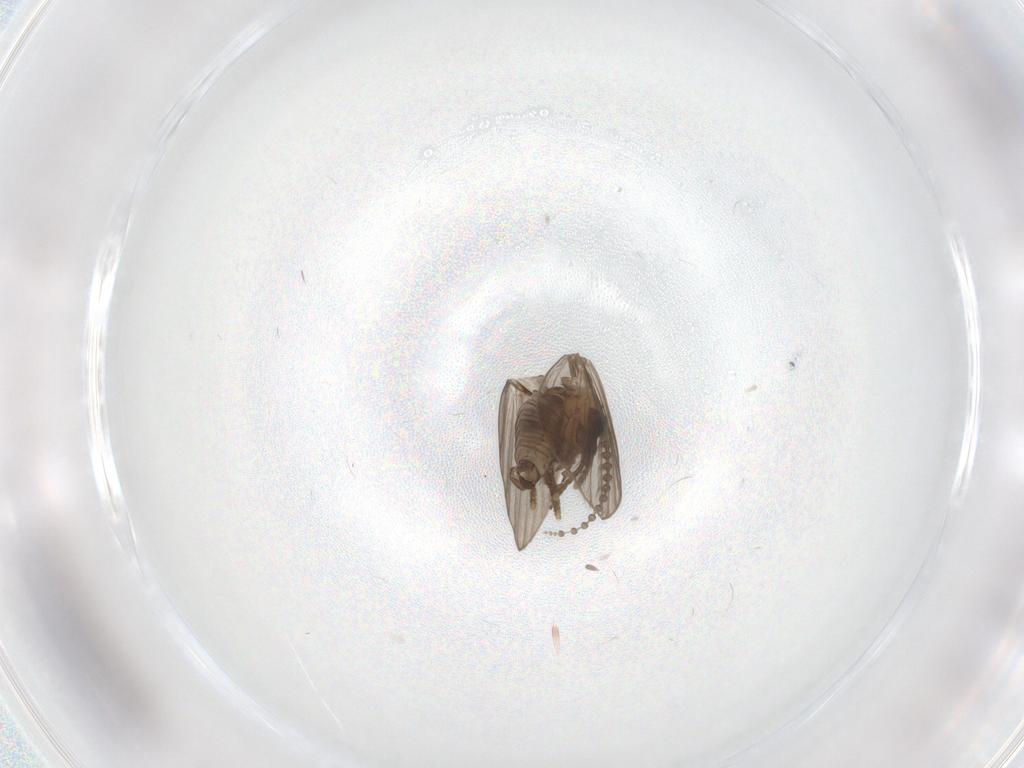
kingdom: Animalia
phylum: Arthropoda
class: Insecta
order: Diptera
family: Psychodidae
